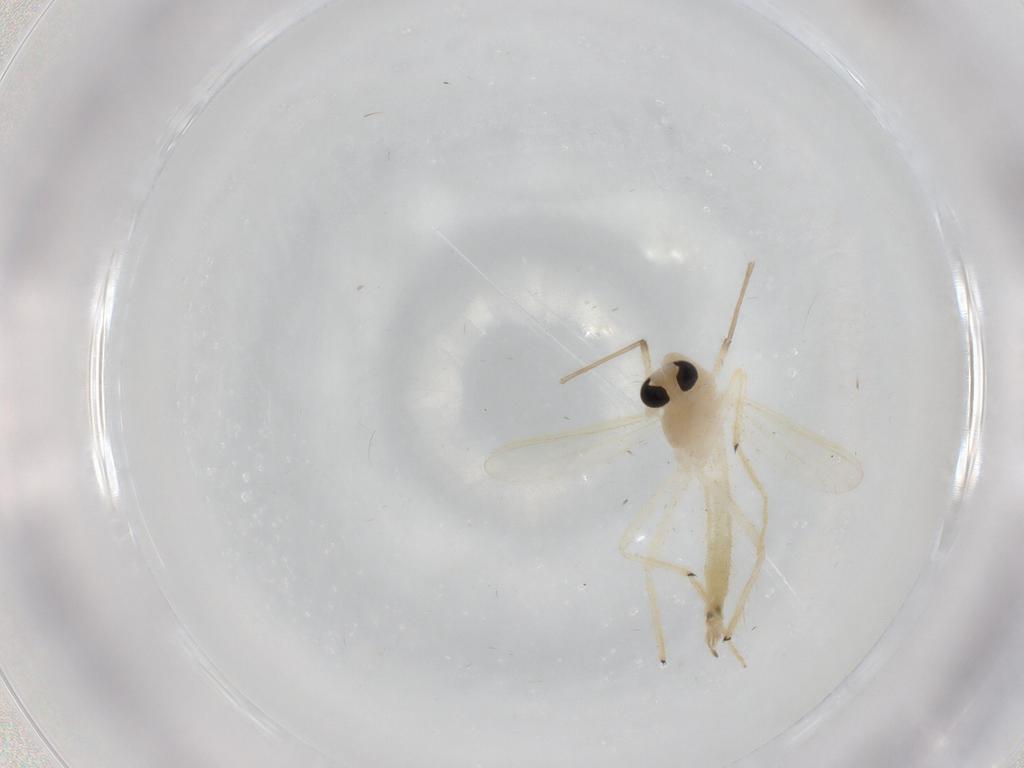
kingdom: Animalia
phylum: Arthropoda
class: Insecta
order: Diptera
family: Chironomidae
